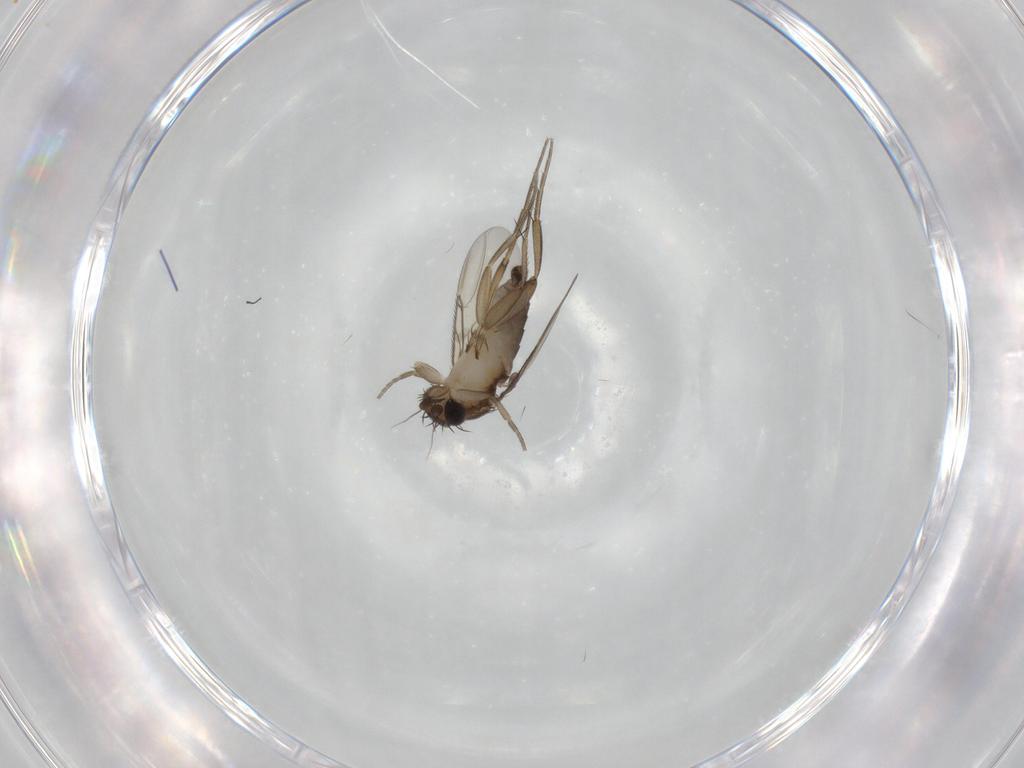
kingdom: Animalia
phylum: Arthropoda
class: Insecta
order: Diptera
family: Phoridae
